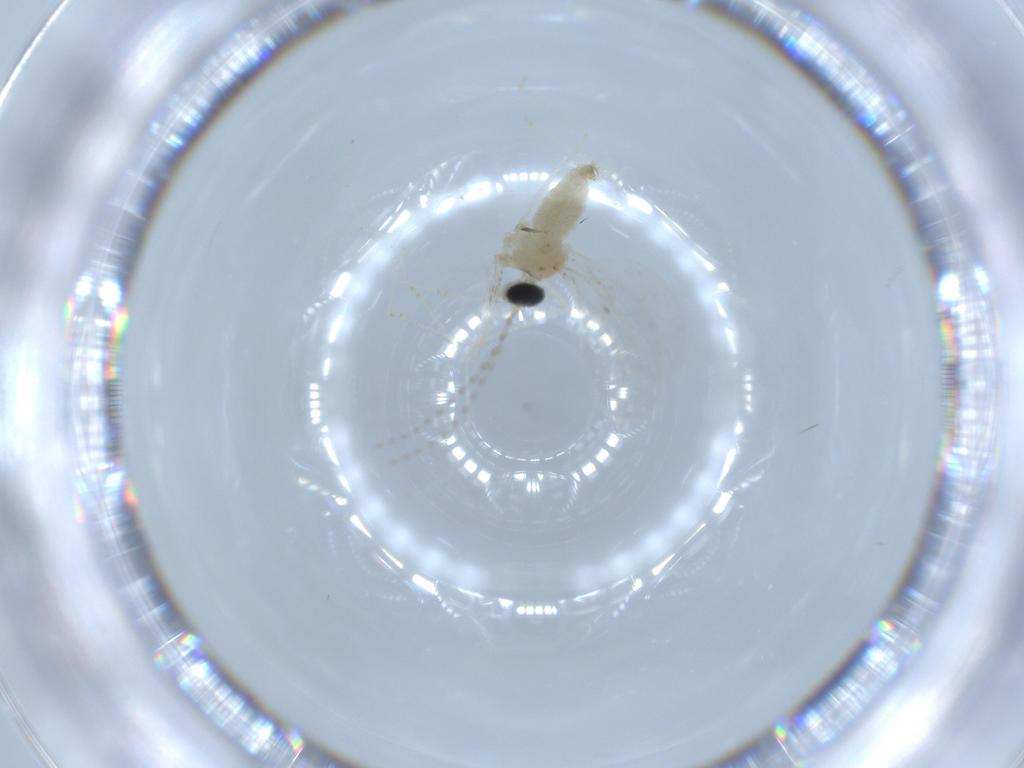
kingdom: Animalia
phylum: Arthropoda
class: Insecta
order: Diptera
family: Cecidomyiidae
